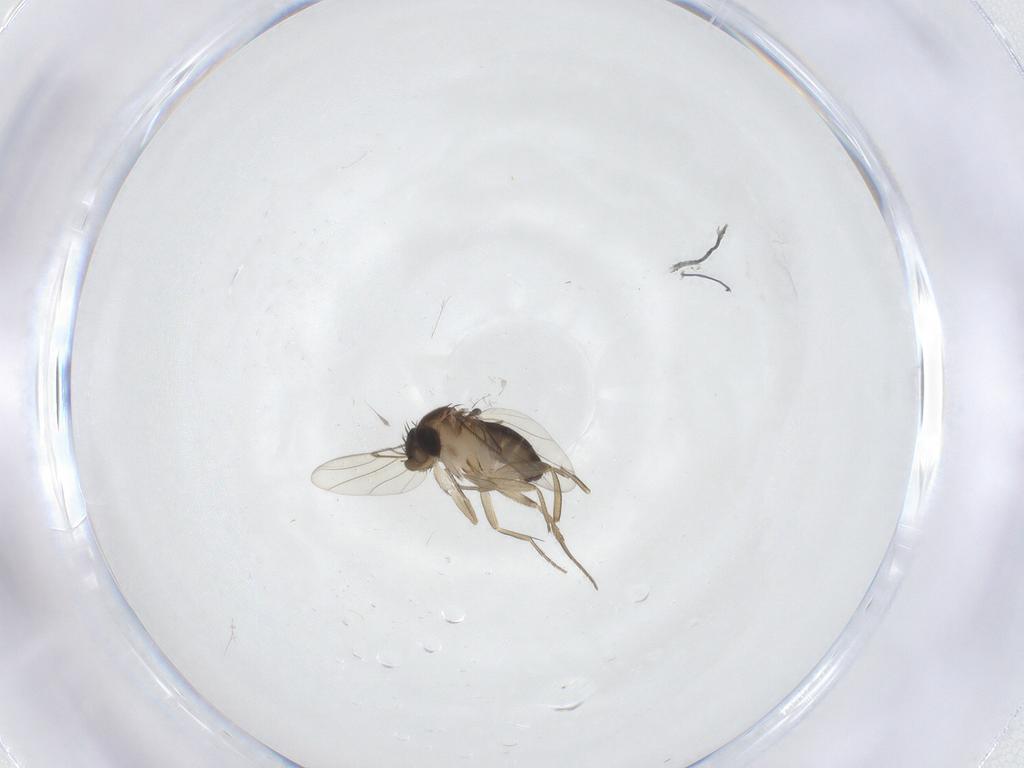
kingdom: Animalia
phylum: Arthropoda
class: Insecta
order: Diptera
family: Phoridae
